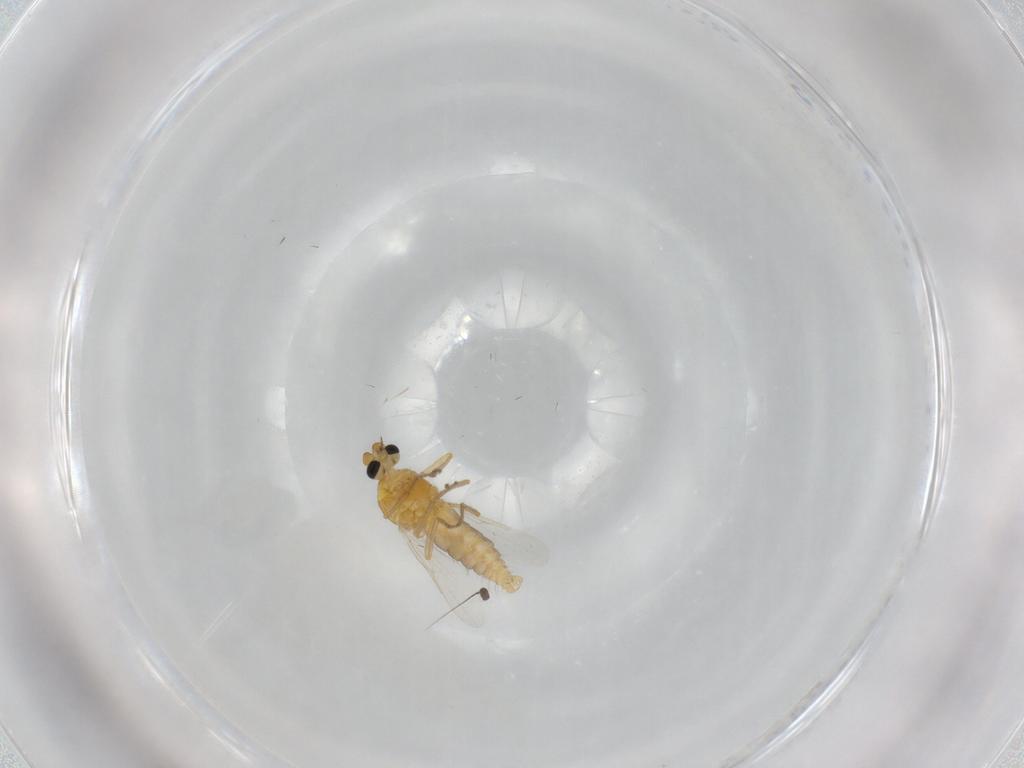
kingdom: Animalia
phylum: Arthropoda
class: Insecta
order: Diptera
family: Ceratopogonidae
